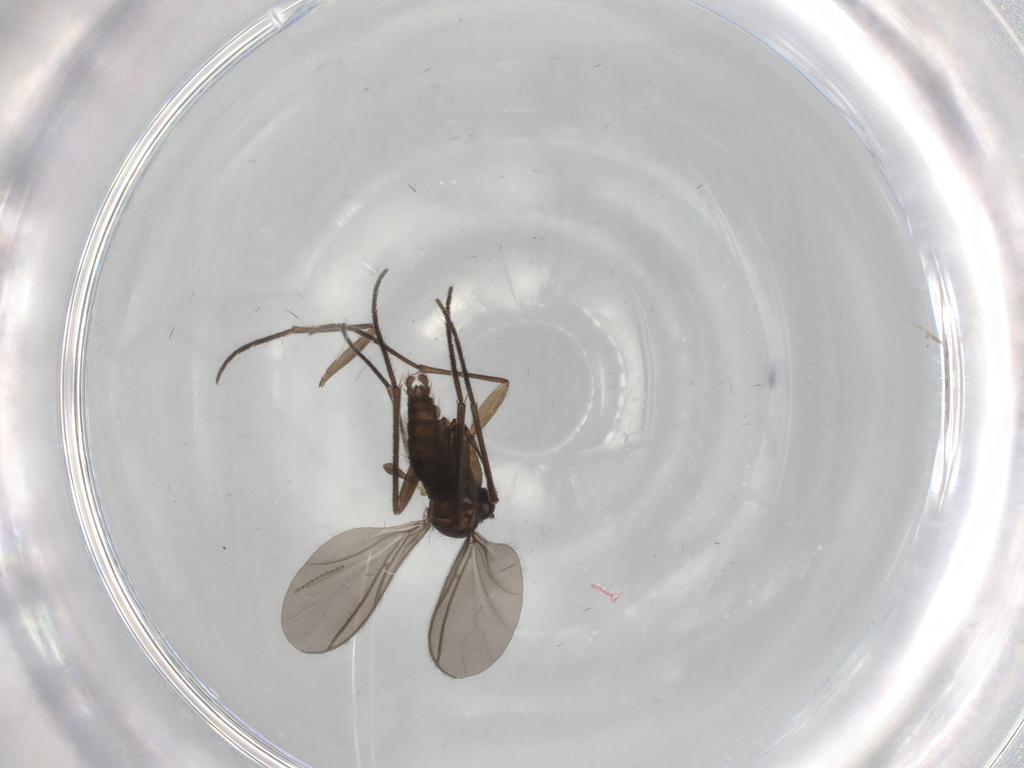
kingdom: Animalia
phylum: Arthropoda
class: Insecta
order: Diptera
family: Sciaridae
